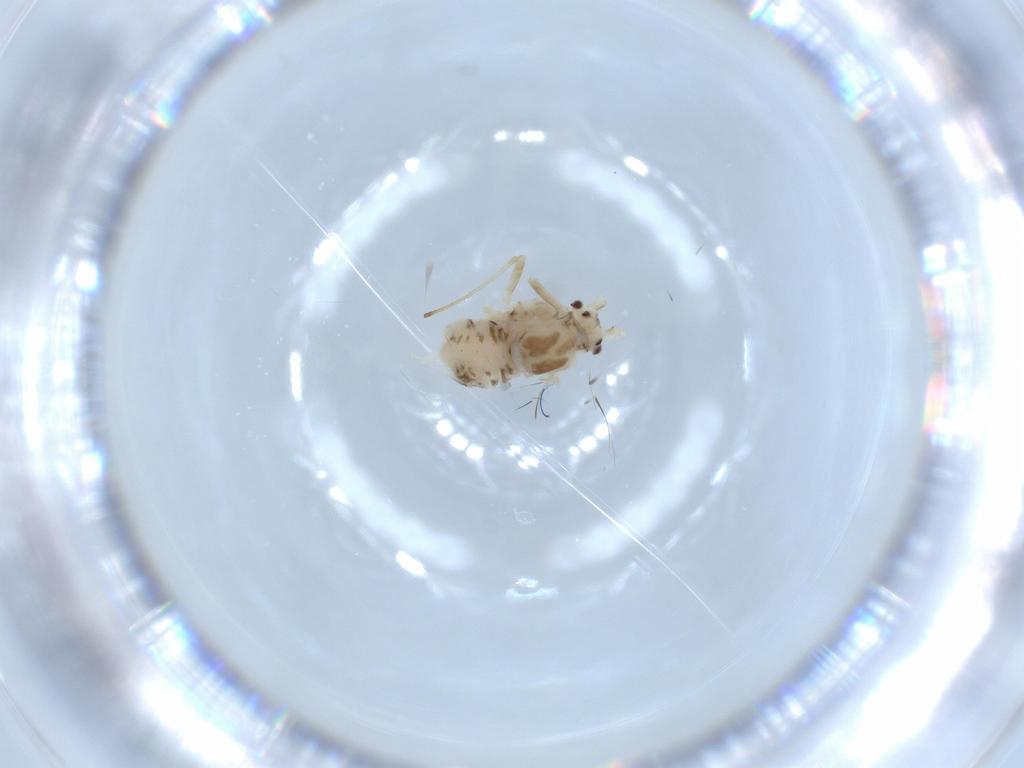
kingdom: Animalia
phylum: Arthropoda
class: Insecta
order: Hemiptera
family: Aphididae
